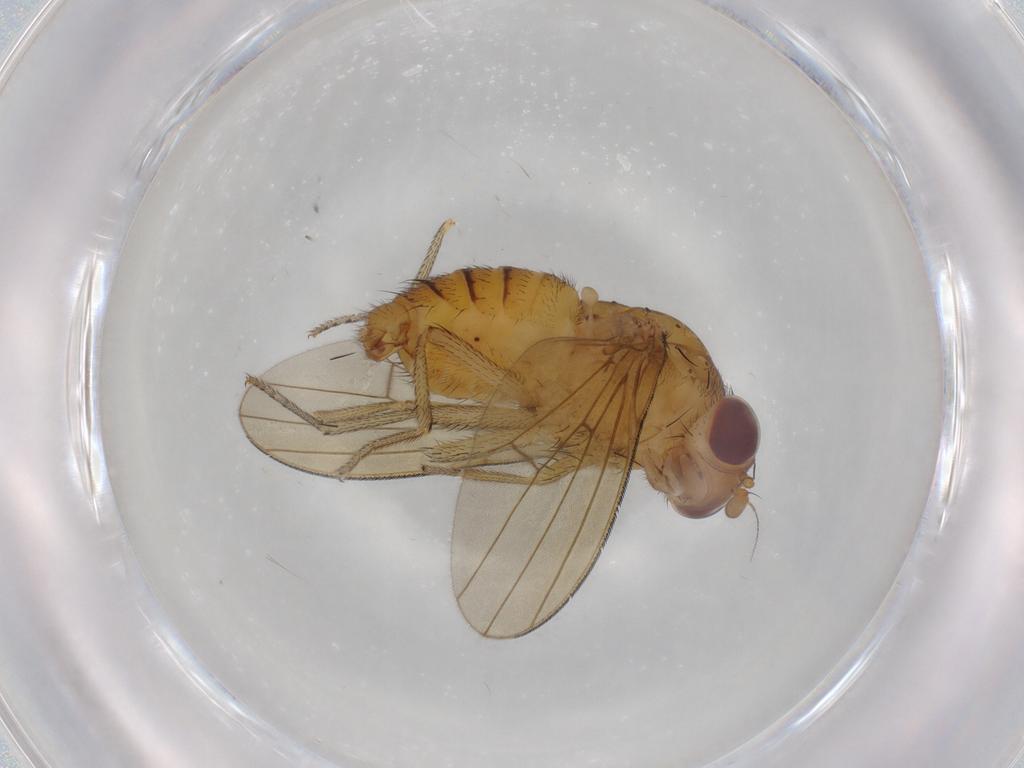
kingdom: Animalia
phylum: Arthropoda
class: Insecta
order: Diptera
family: Lauxaniidae
